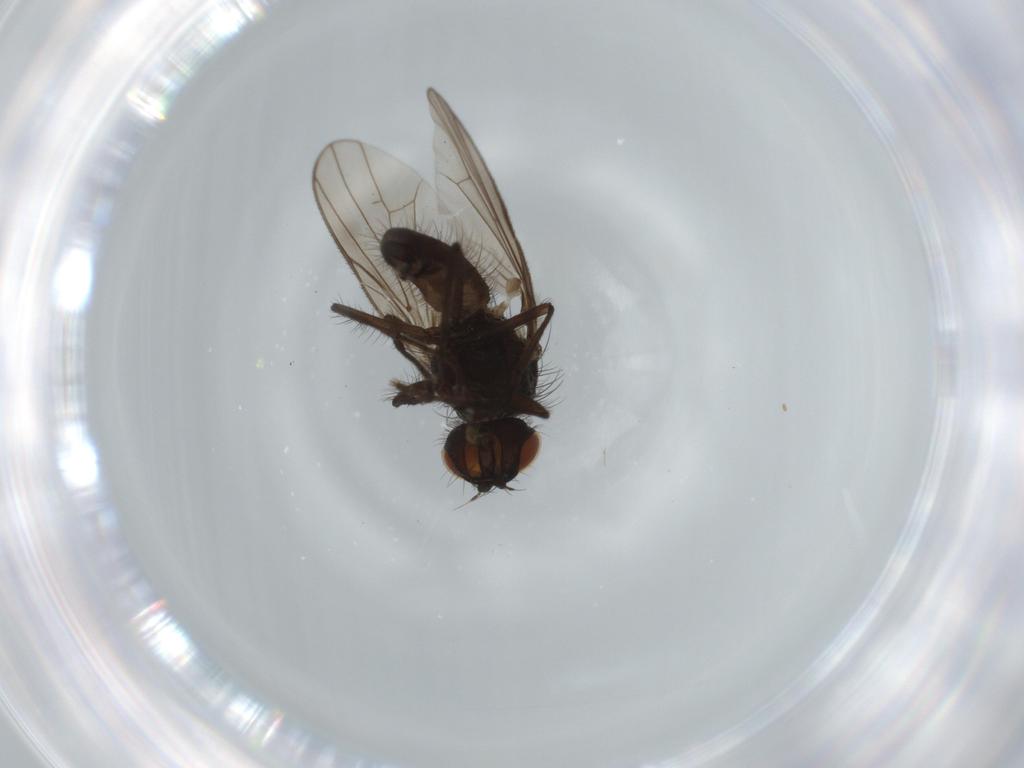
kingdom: Animalia
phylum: Arthropoda
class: Insecta
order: Diptera
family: Anthomyiidae
